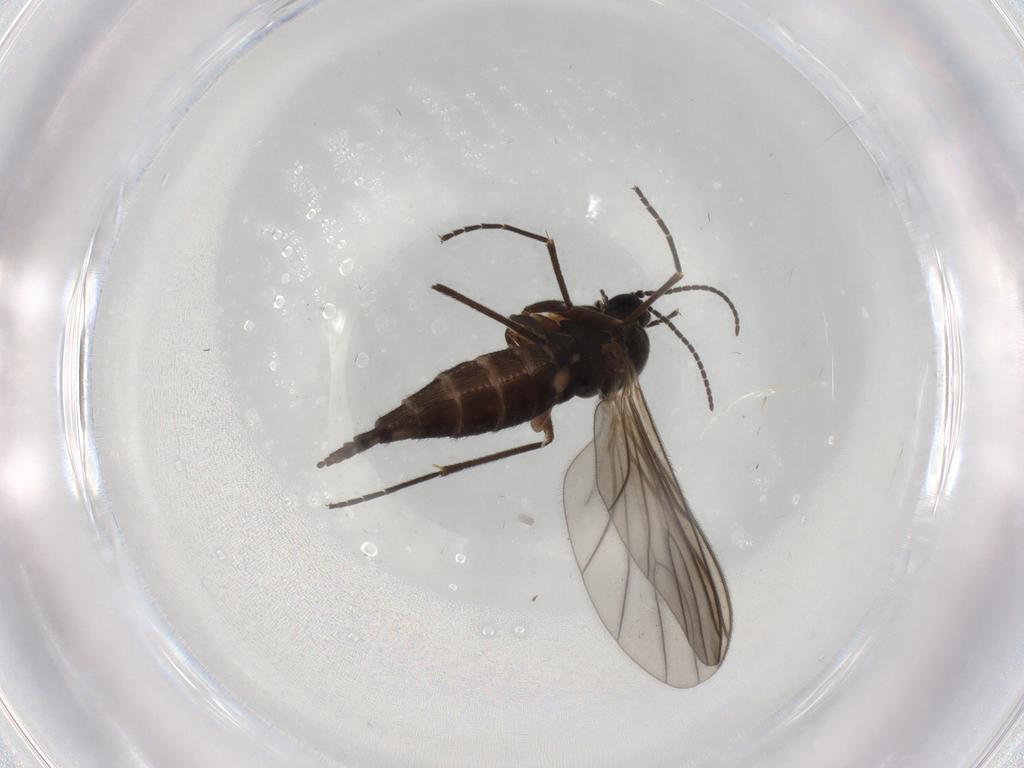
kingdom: Animalia
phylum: Arthropoda
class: Insecta
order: Diptera
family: Sciaridae
